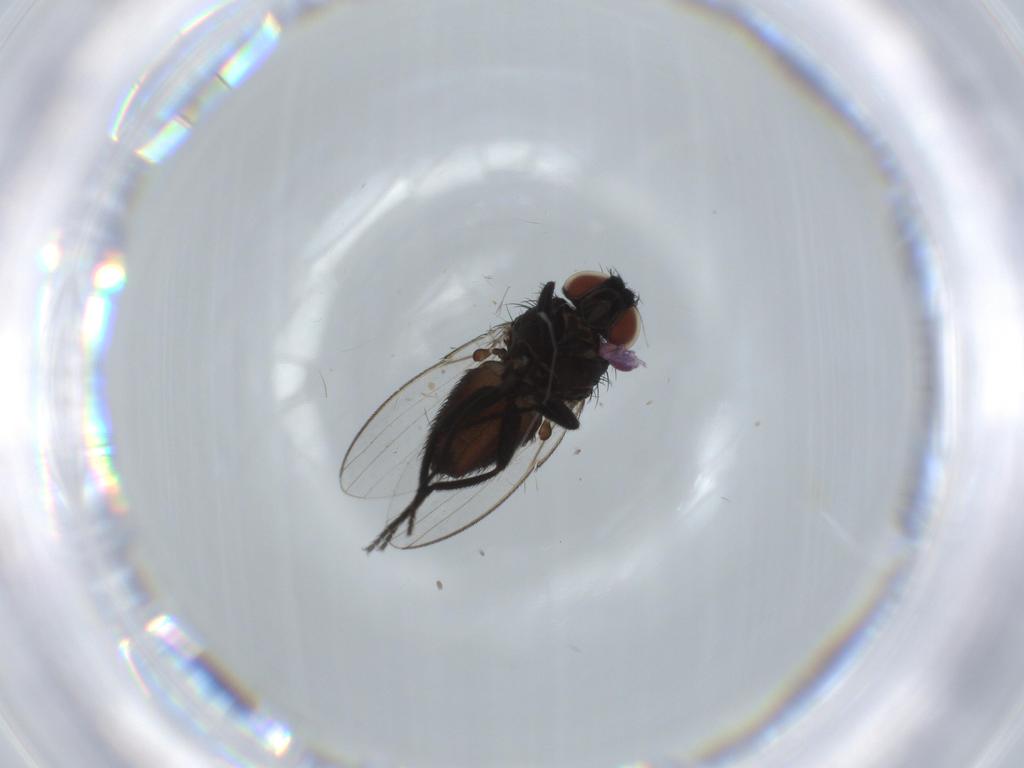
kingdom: Animalia
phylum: Arthropoda
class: Insecta
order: Diptera
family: Milichiidae
